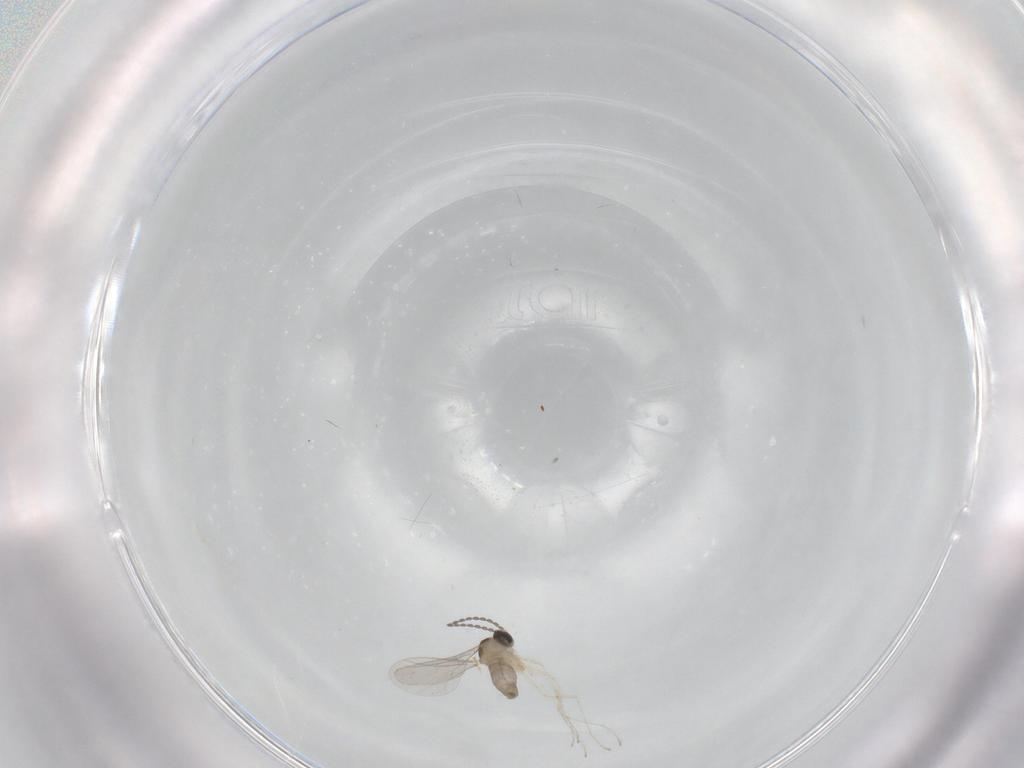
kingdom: Animalia
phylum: Arthropoda
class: Insecta
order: Diptera
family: Cecidomyiidae
